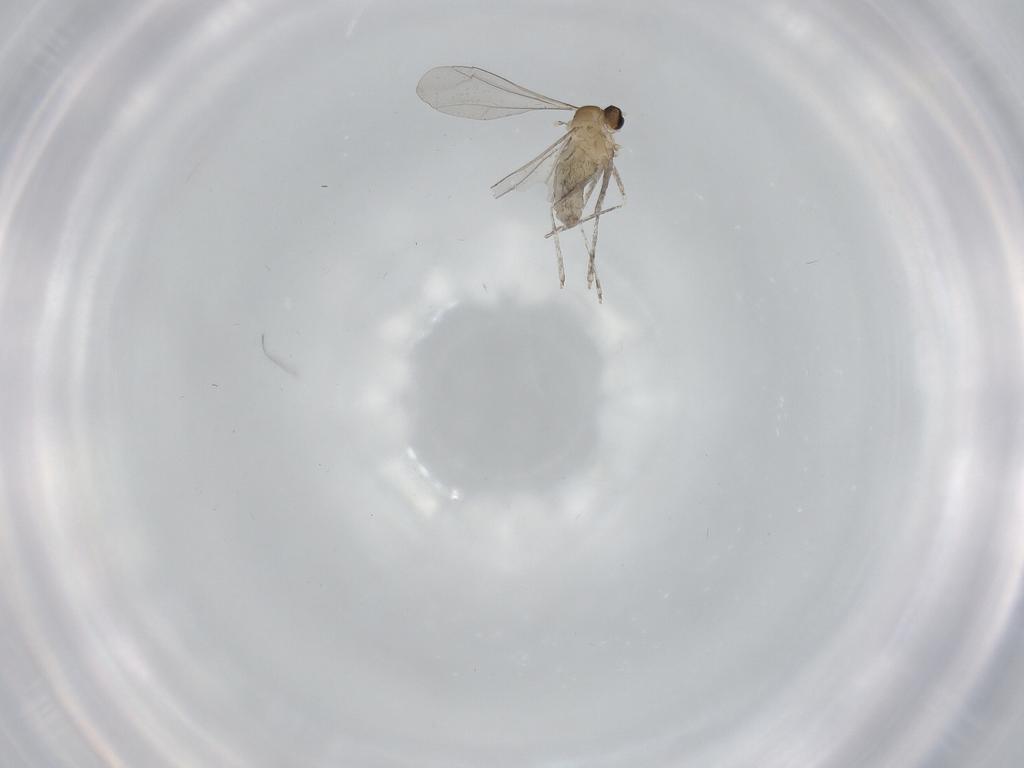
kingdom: Animalia
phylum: Arthropoda
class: Insecta
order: Diptera
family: Cecidomyiidae
